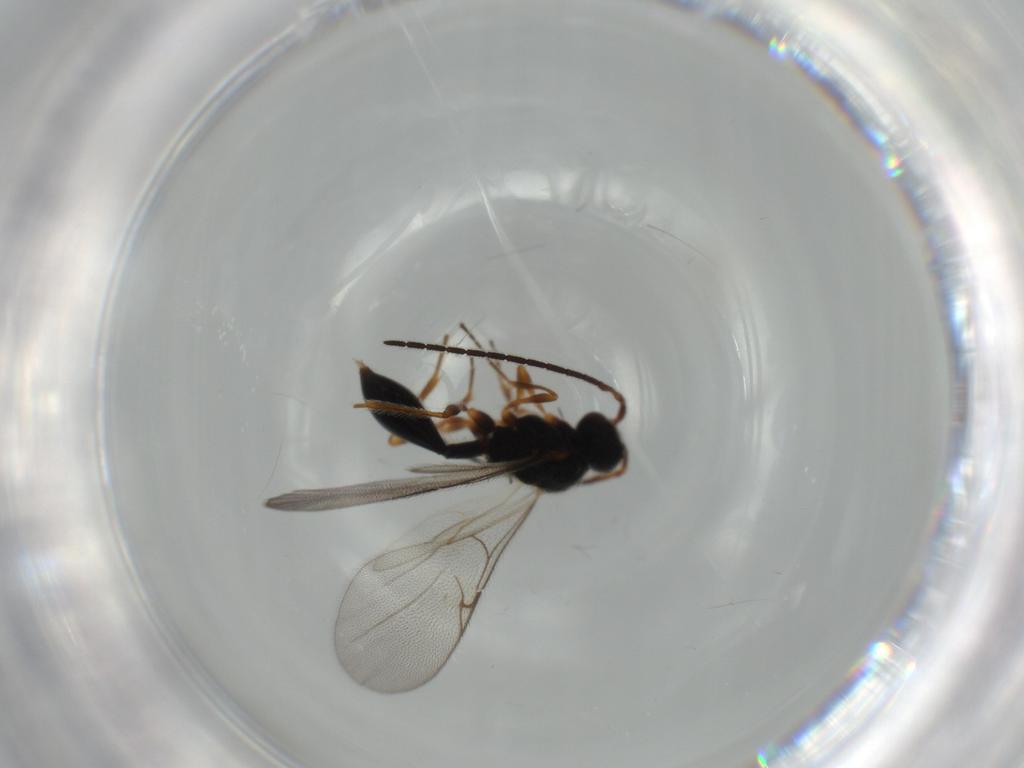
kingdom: Animalia
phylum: Arthropoda
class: Insecta
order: Hymenoptera
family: Diapriidae
